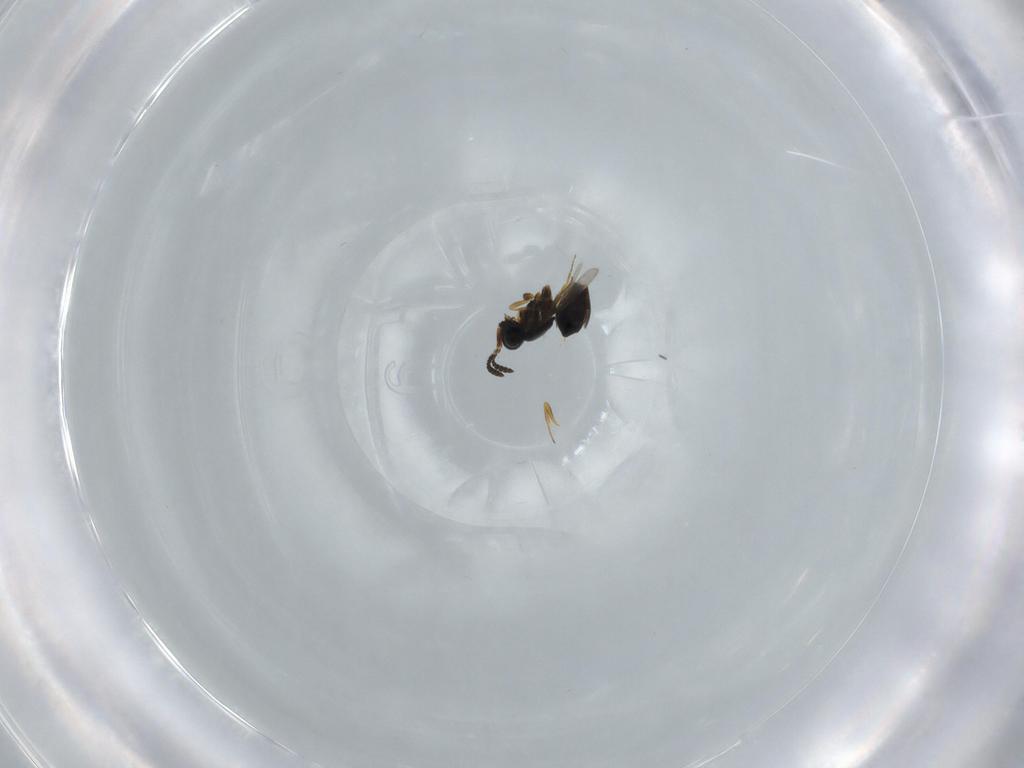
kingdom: Animalia
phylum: Arthropoda
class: Insecta
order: Hymenoptera
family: Scelionidae
